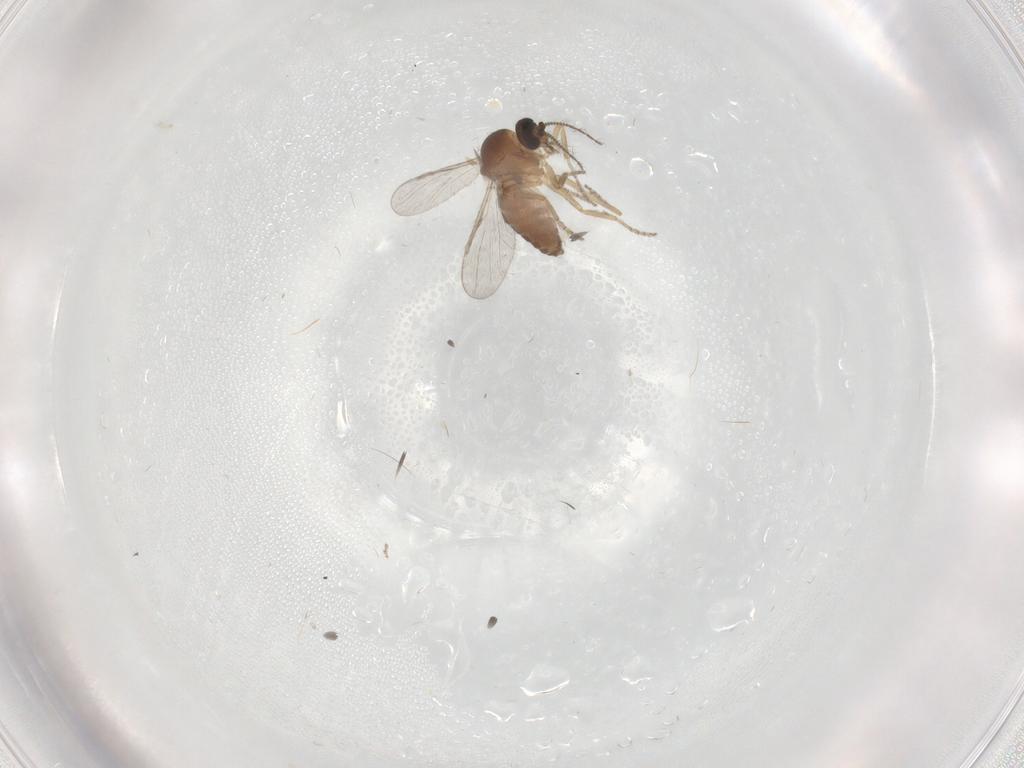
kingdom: Animalia
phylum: Arthropoda
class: Insecta
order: Diptera
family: Ceratopogonidae
